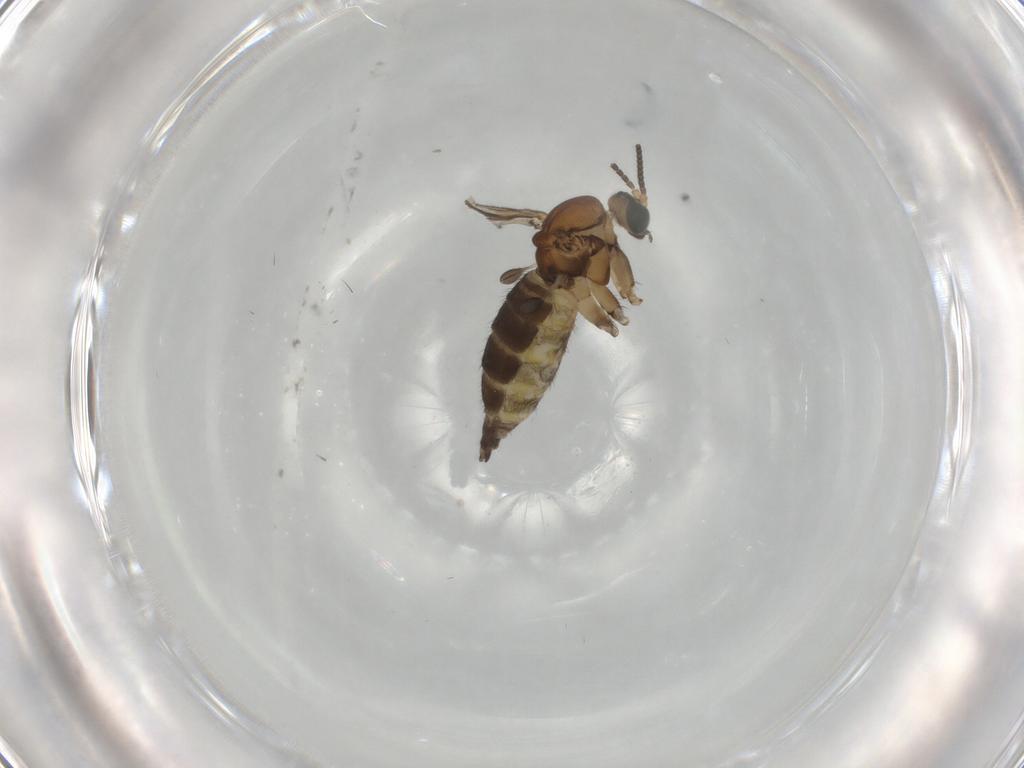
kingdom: Animalia
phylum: Arthropoda
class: Insecta
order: Diptera
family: Sciaridae
